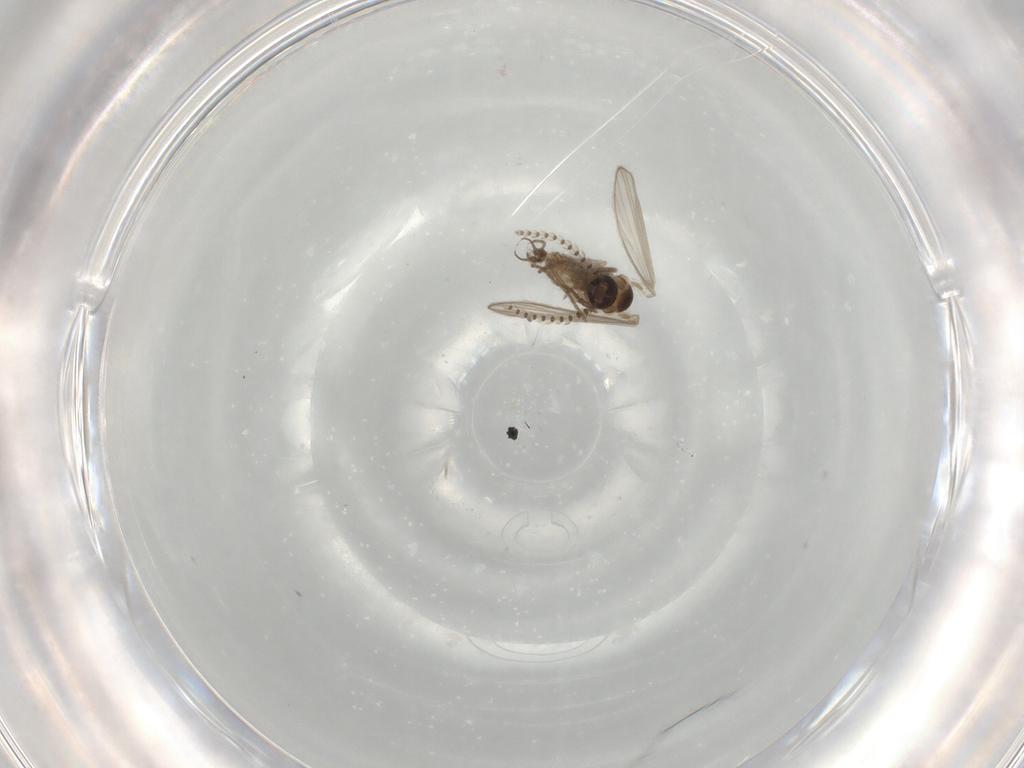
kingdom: Animalia
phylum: Arthropoda
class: Insecta
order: Diptera
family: Psychodidae
